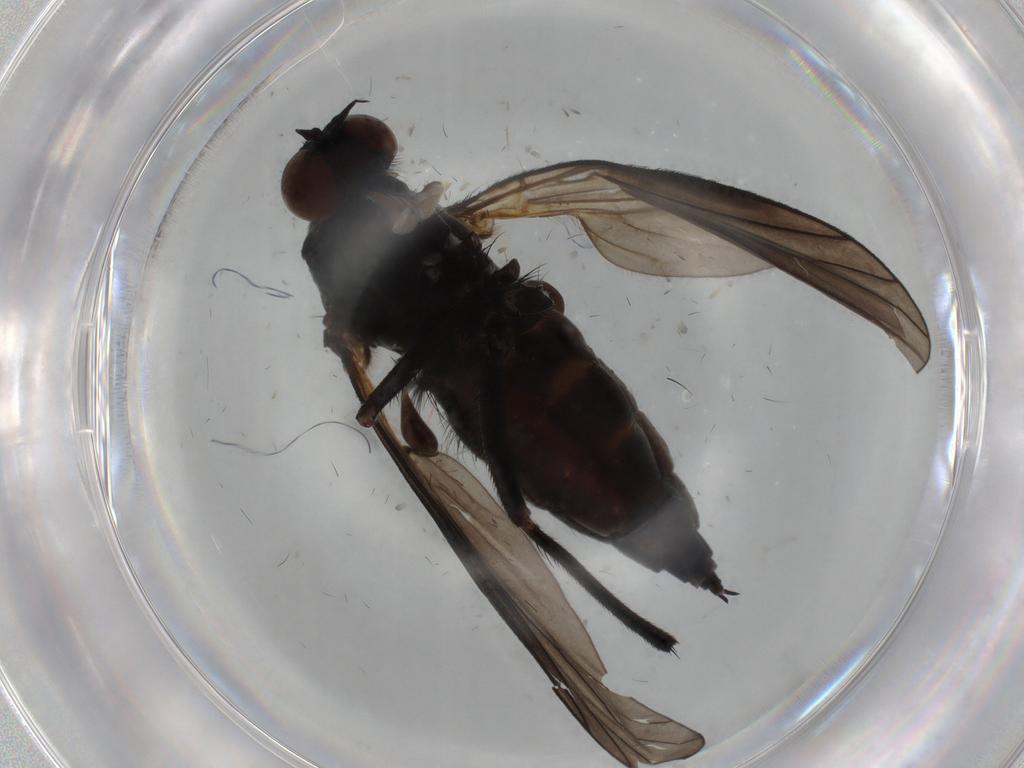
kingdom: Animalia
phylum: Arthropoda
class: Insecta
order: Diptera
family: Empididae
